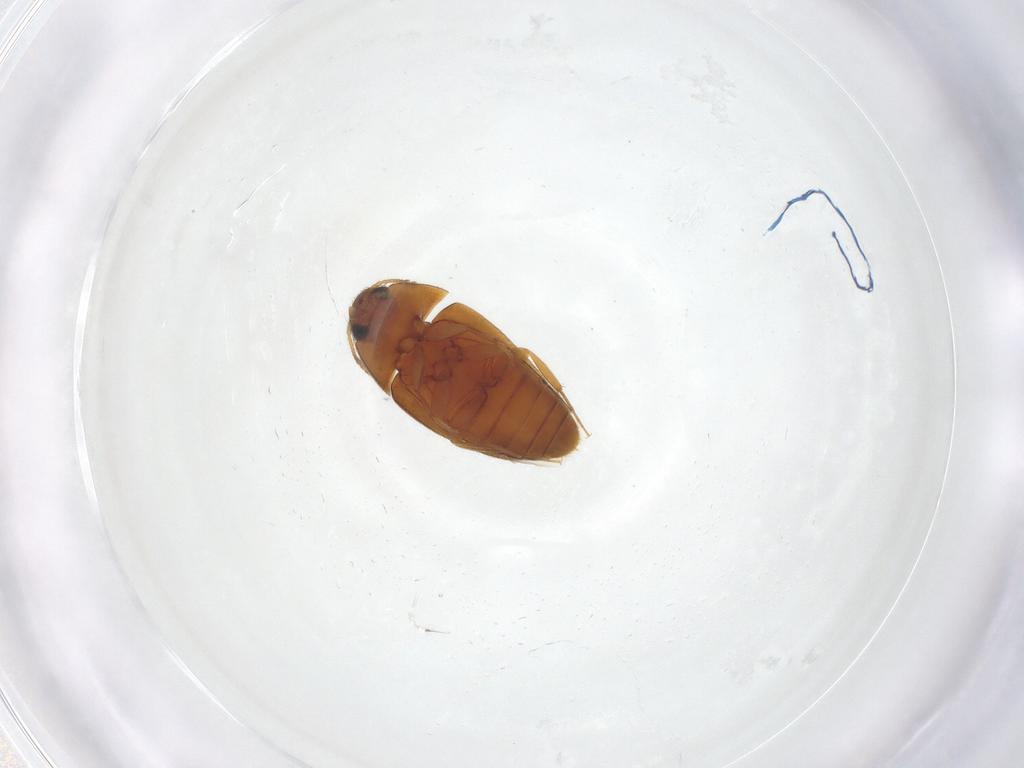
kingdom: Animalia
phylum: Arthropoda
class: Insecta
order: Coleoptera
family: Mycetophagidae
